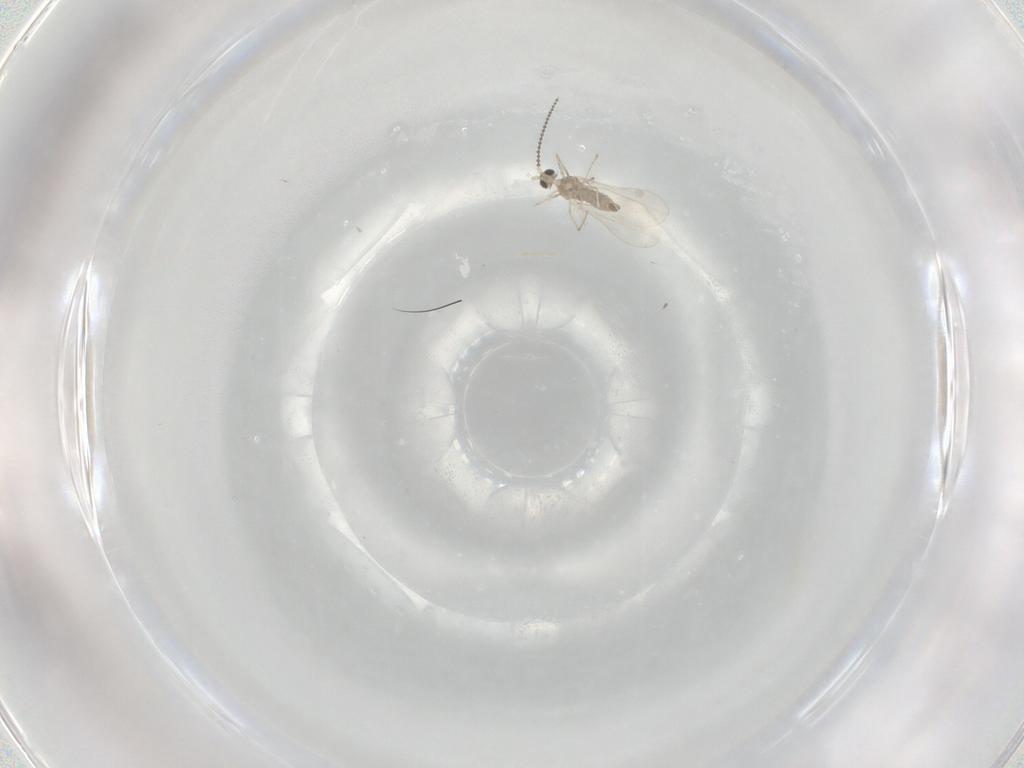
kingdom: Animalia
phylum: Arthropoda
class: Insecta
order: Diptera
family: Cecidomyiidae
